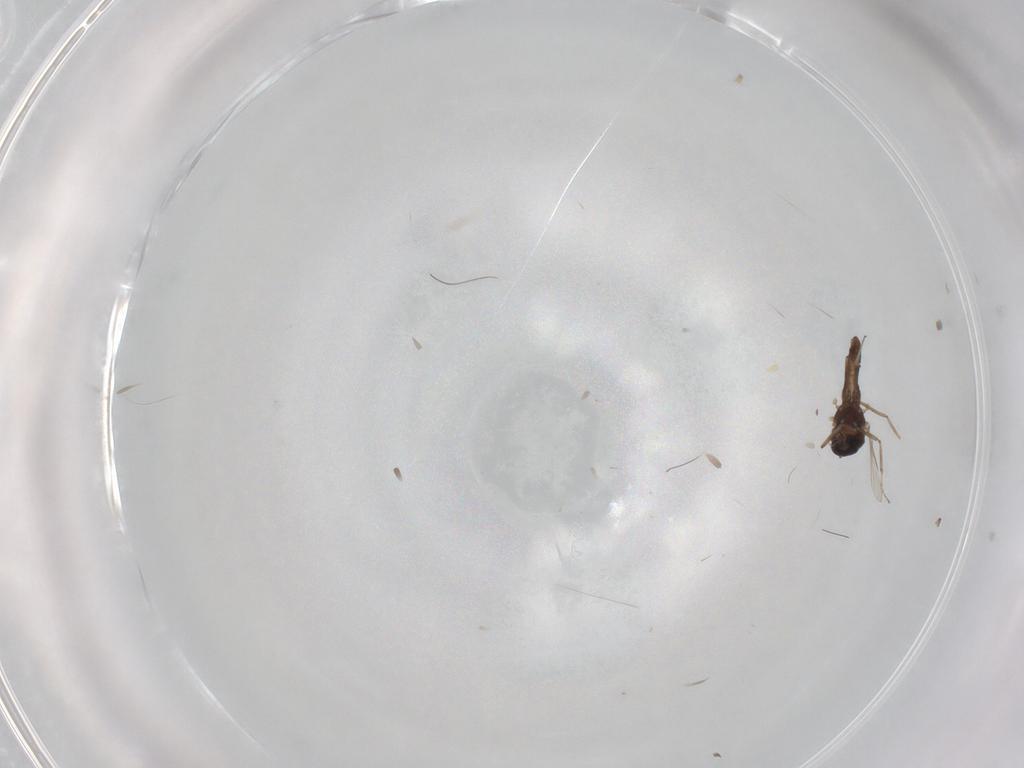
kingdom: Animalia
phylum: Arthropoda
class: Insecta
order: Diptera
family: Ceratopogonidae
